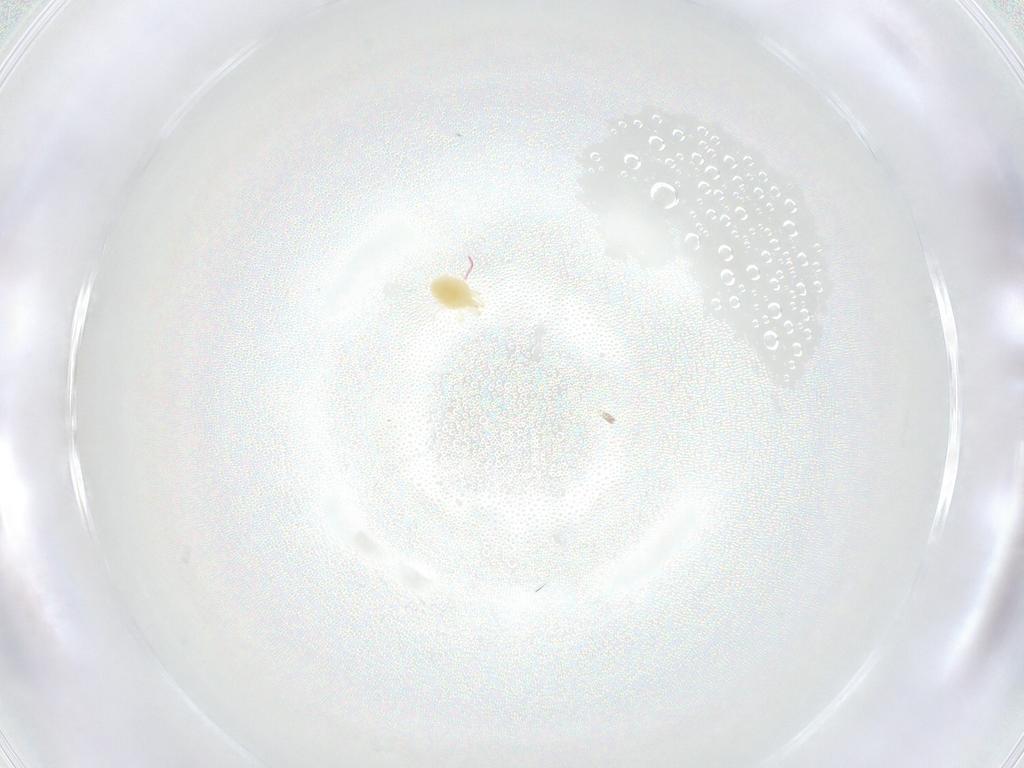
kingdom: Animalia
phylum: Arthropoda
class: Arachnida
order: Trombidiformes
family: Tetranychidae
